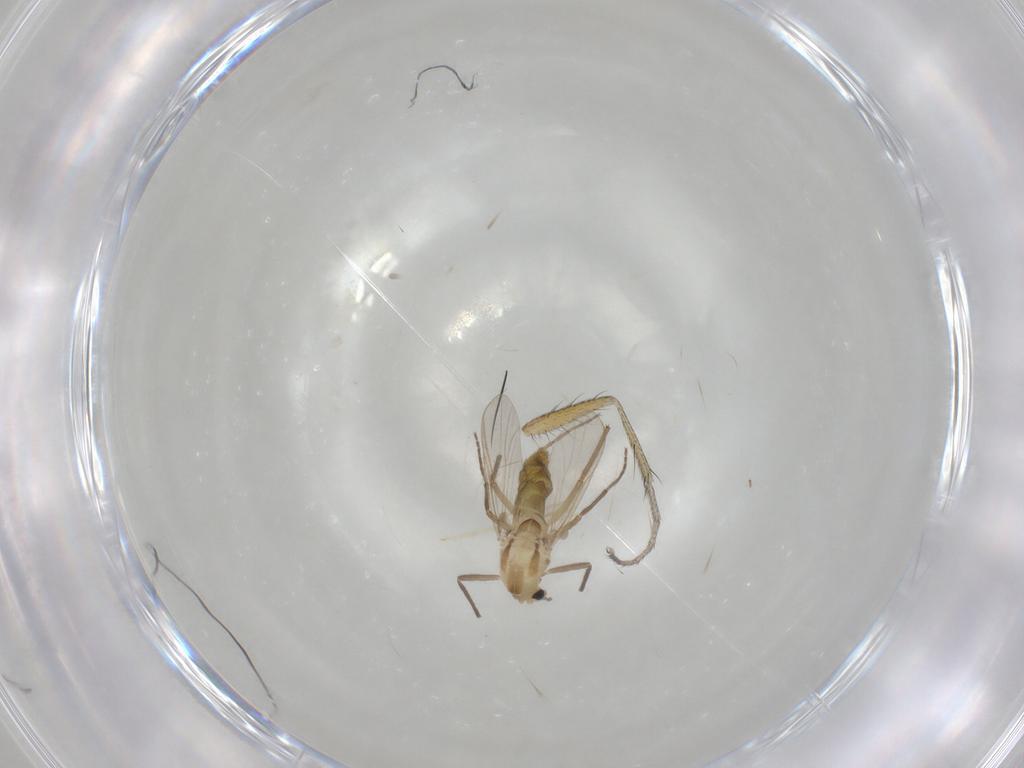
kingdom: Animalia
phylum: Arthropoda
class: Insecta
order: Diptera
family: Chironomidae
